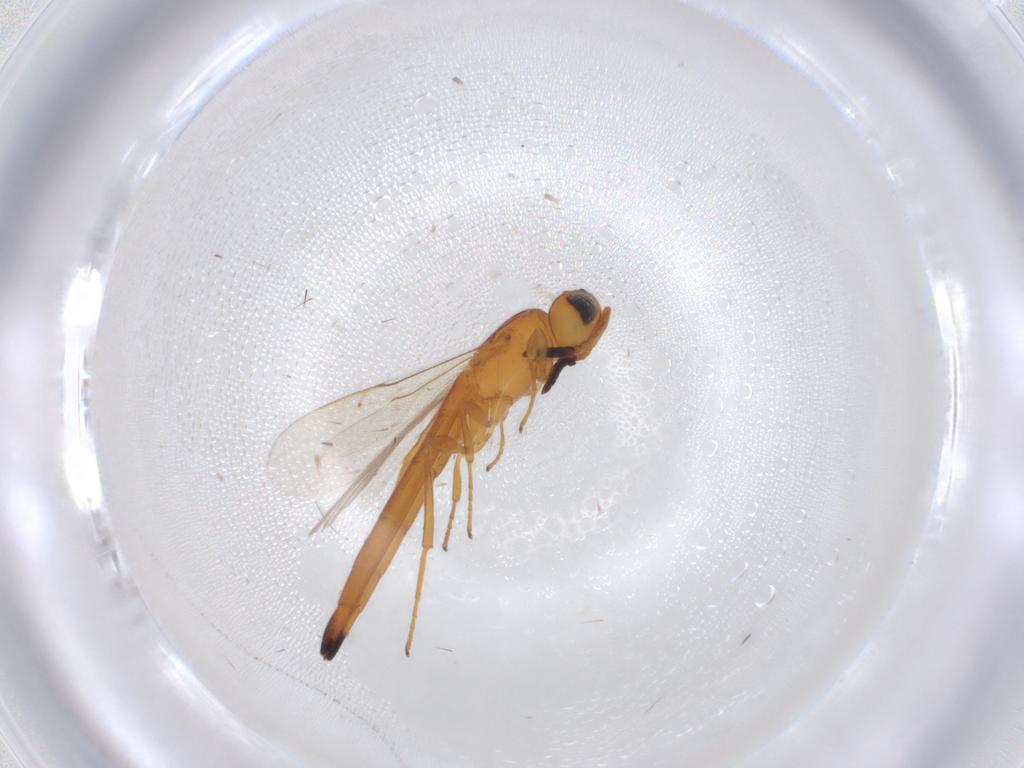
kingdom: Animalia
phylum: Arthropoda
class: Insecta
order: Hymenoptera
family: Scelionidae
